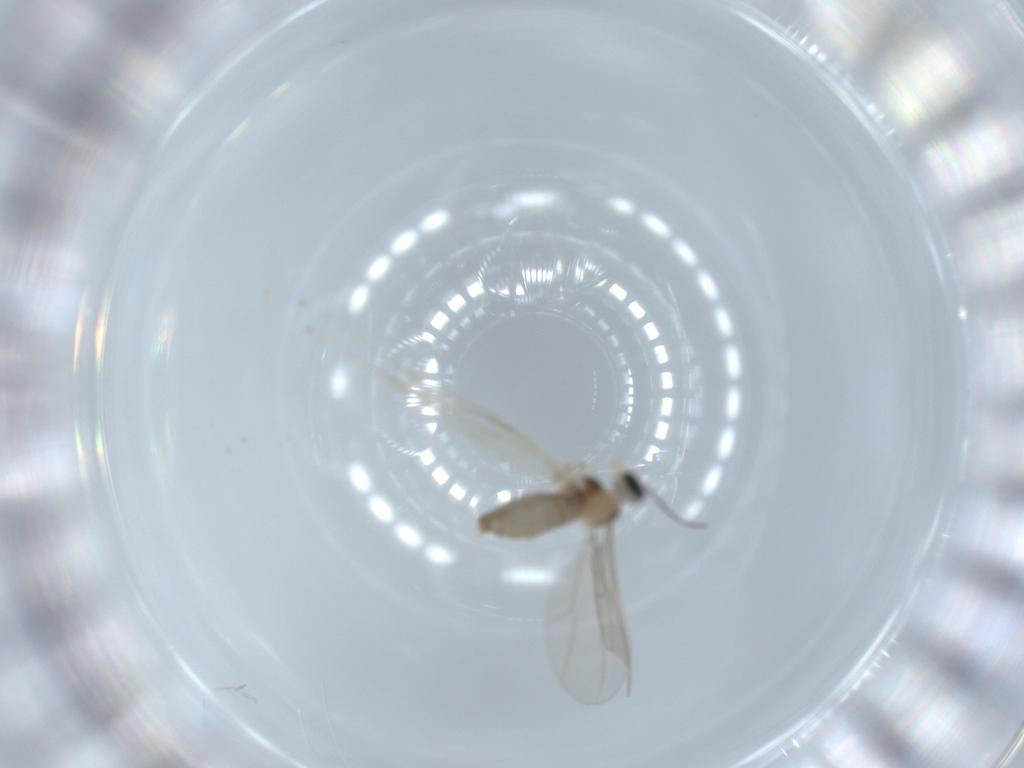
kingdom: Animalia
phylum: Arthropoda
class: Insecta
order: Diptera
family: Cecidomyiidae
